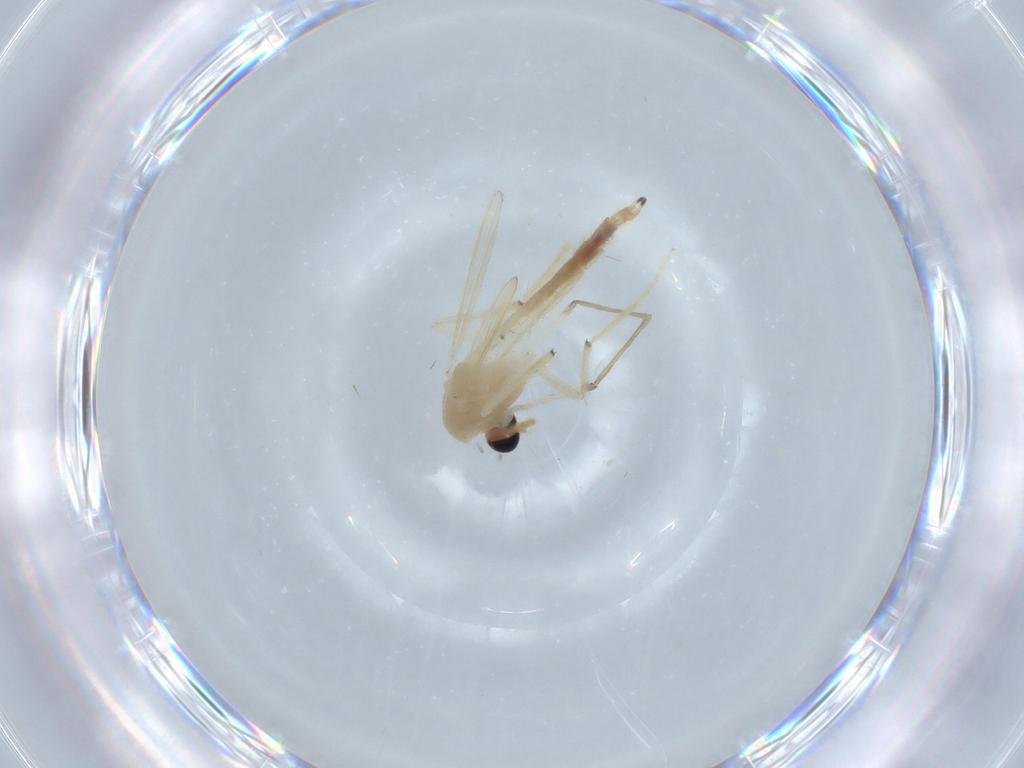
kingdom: Animalia
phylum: Arthropoda
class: Insecta
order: Diptera
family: Chironomidae
